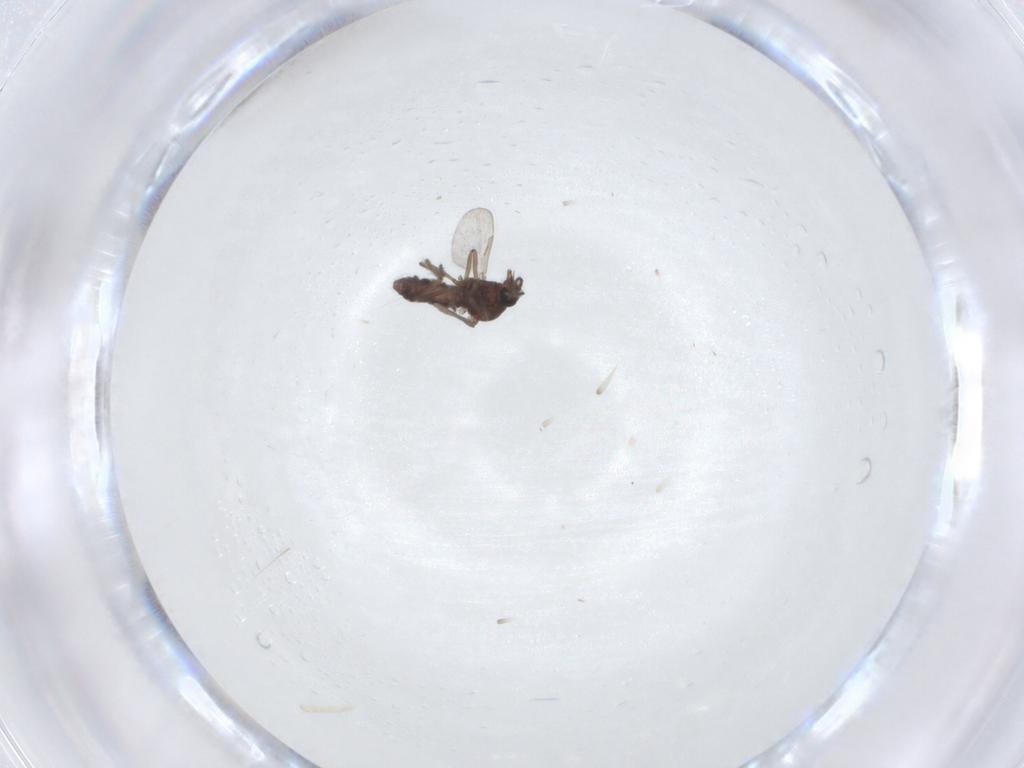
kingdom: Animalia
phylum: Arthropoda
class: Insecta
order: Diptera
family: Ceratopogonidae
